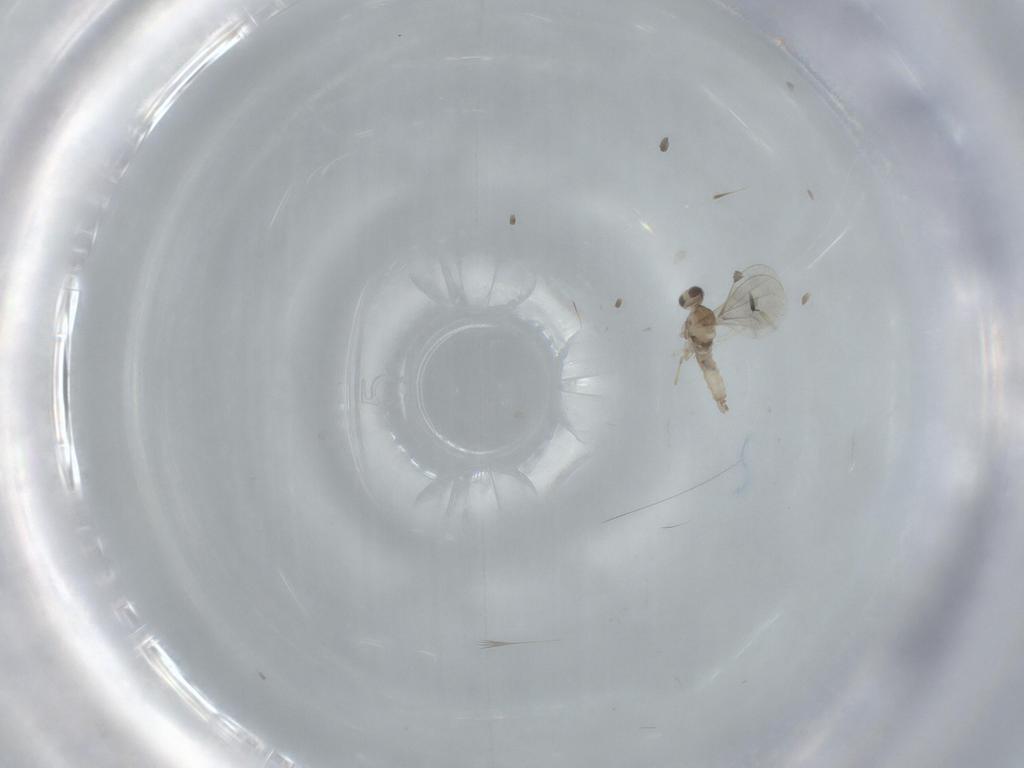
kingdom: Animalia
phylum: Arthropoda
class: Insecta
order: Diptera
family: Cecidomyiidae
